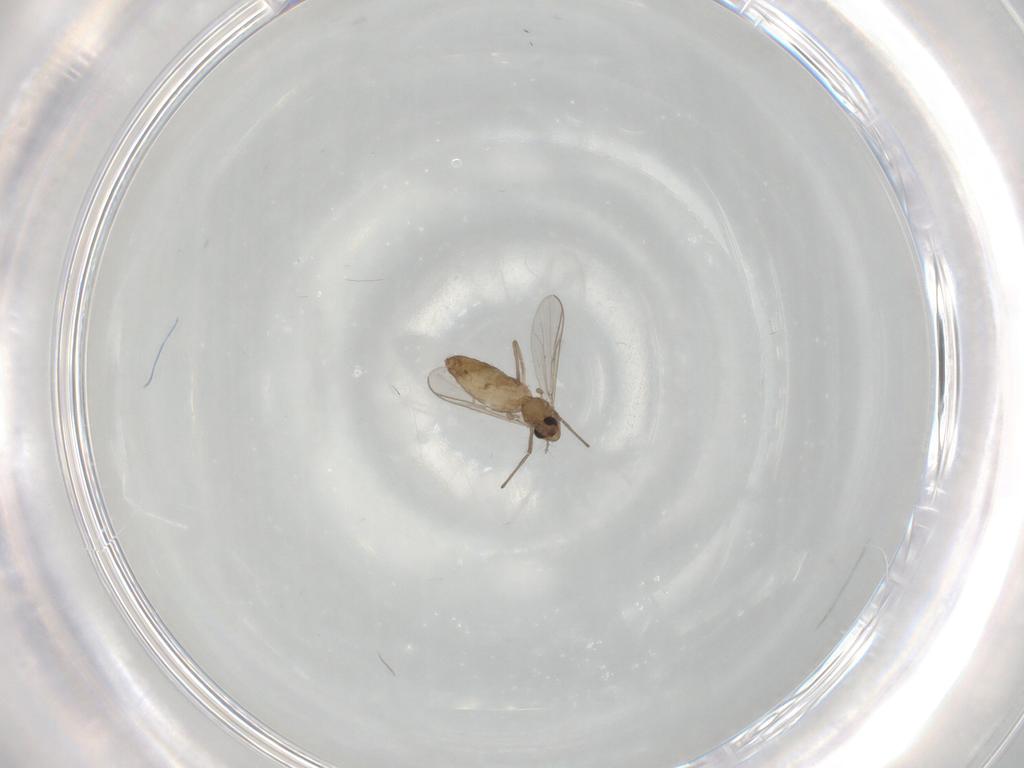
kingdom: Animalia
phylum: Arthropoda
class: Insecta
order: Diptera
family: Chironomidae
